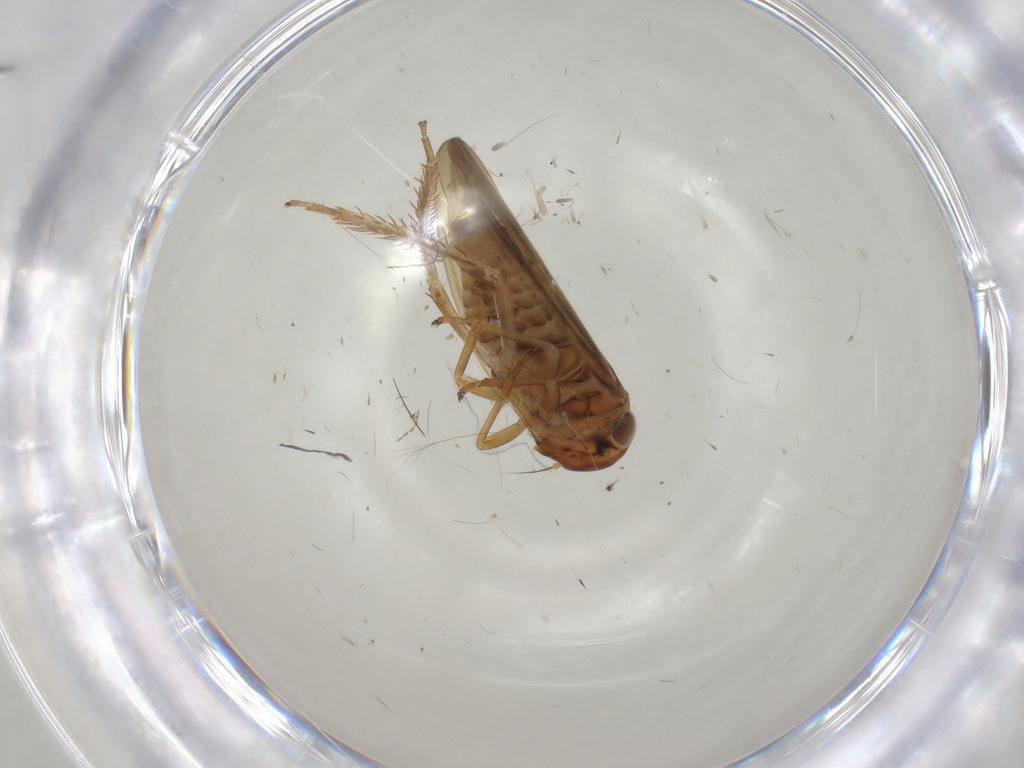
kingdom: Animalia
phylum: Arthropoda
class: Insecta
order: Hemiptera
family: Cicadellidae
